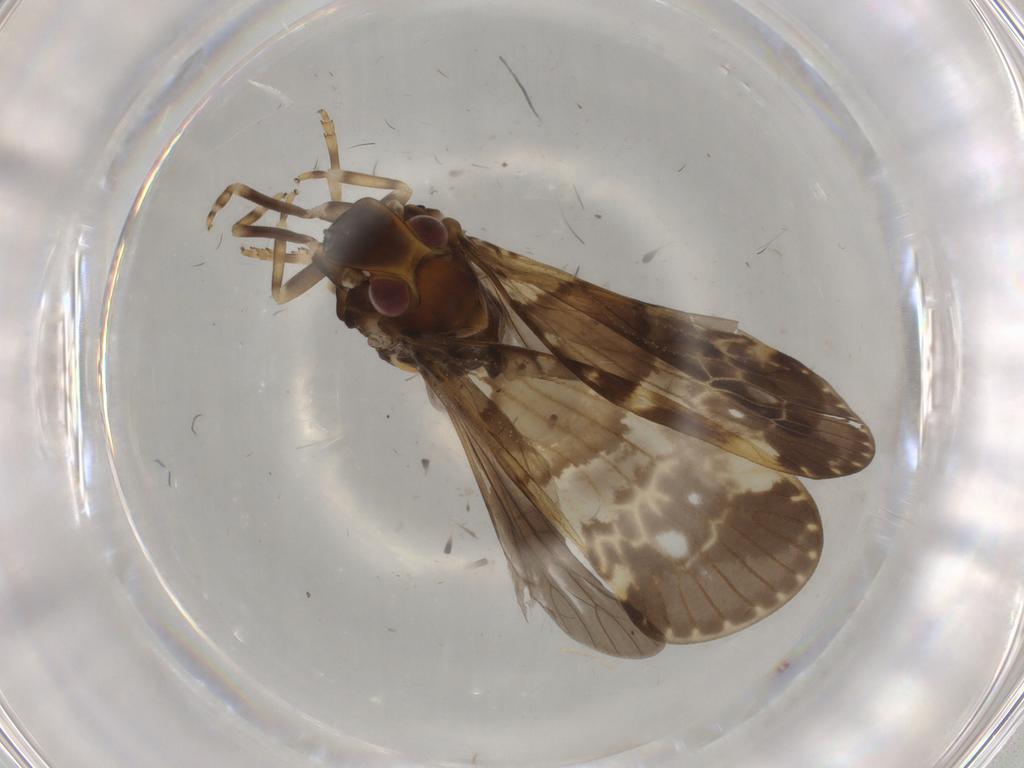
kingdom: Animalia
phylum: Arthropoda
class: Insecta
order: Hemiptera
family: Cixiidae
